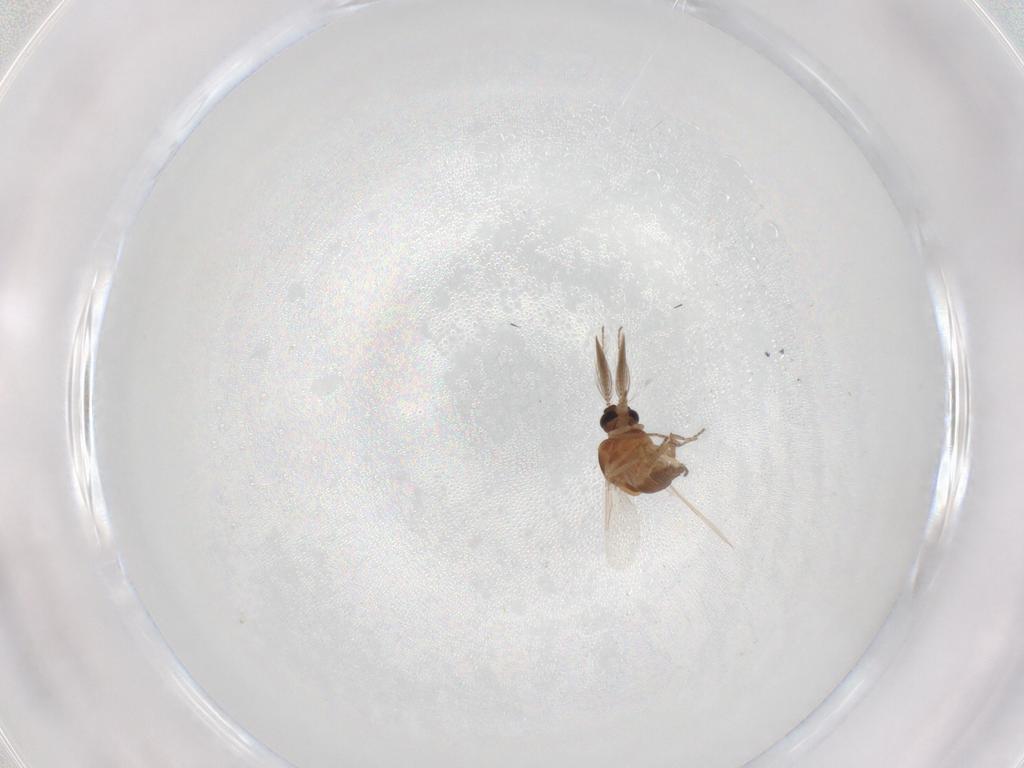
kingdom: Animalia
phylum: Arthropoda
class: Insecta
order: Diptera
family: Ceratopogonidae
